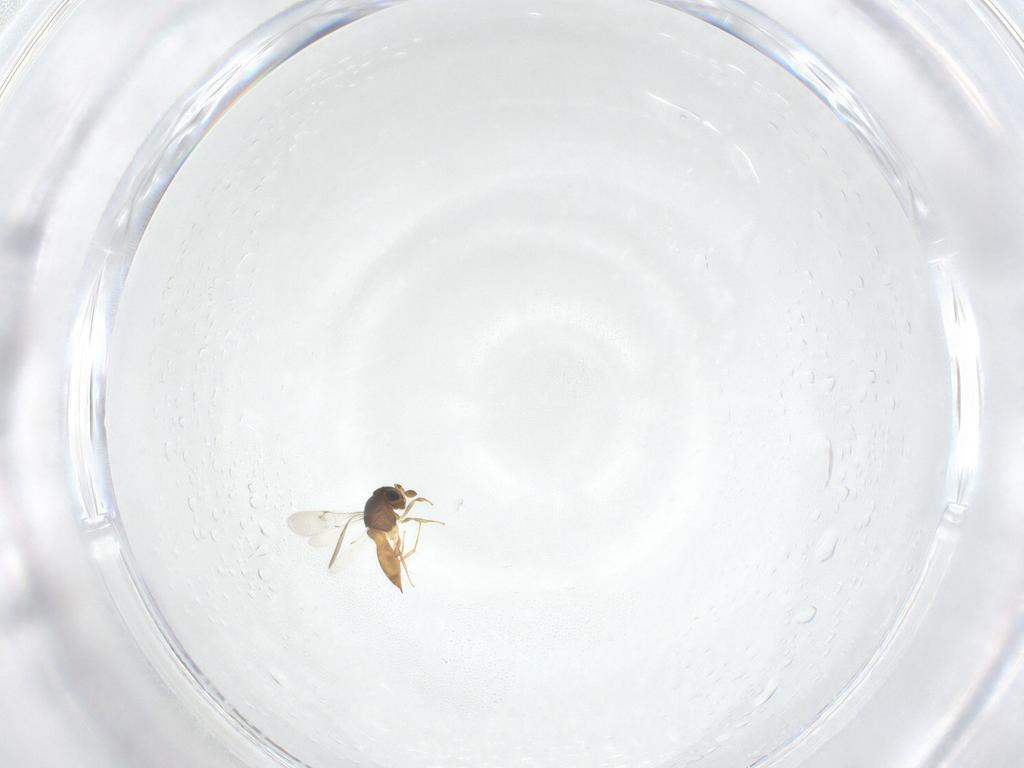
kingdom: Animalia
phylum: Arthropoda
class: Insecta
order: Hymenoptera
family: Scelionidae
